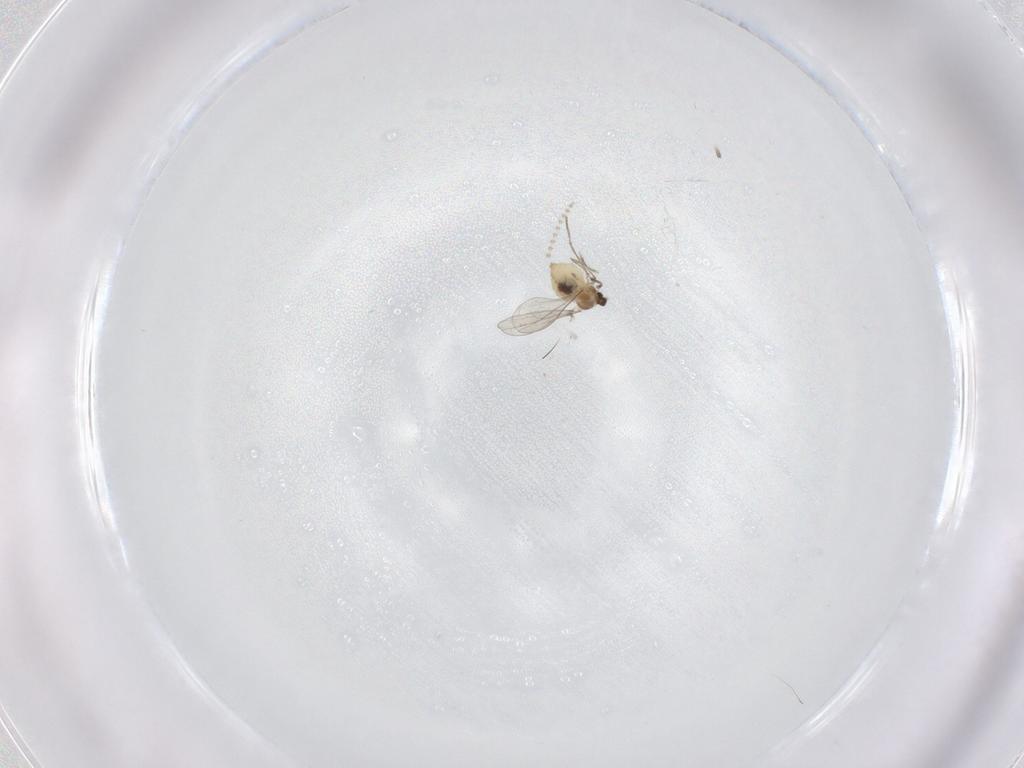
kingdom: Animalia
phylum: Arthropoda
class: Insecta
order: Diptera
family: Cecidomyiidae
